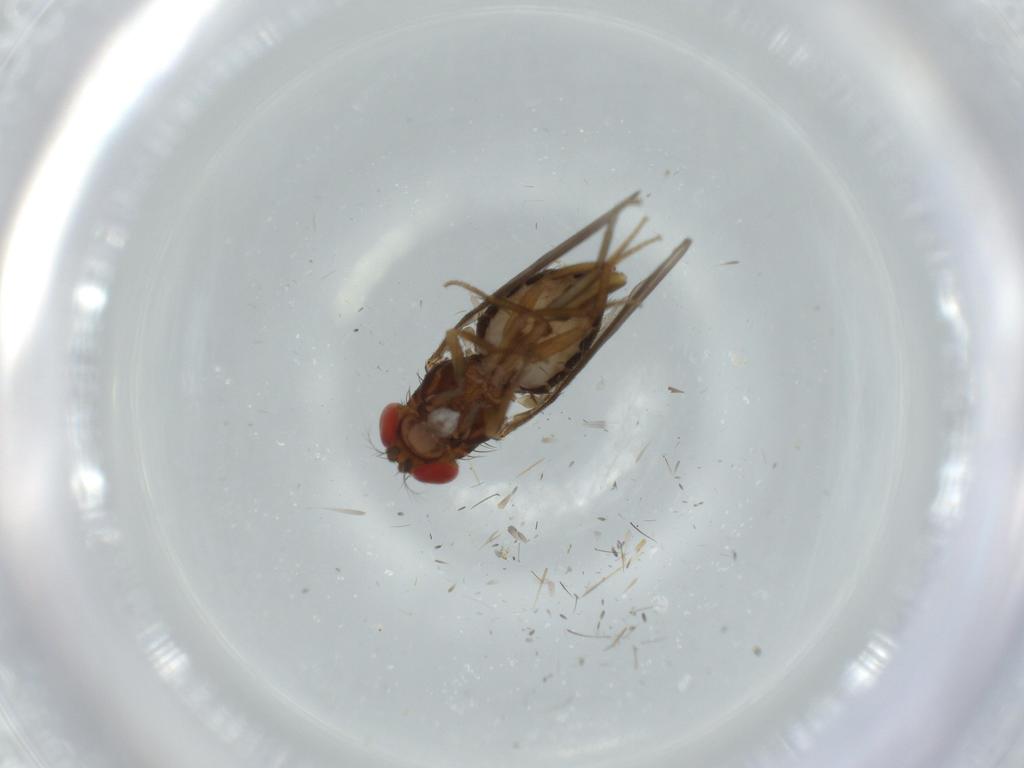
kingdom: Animalia
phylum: Arthropoda
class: Insecta
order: Diptera
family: Drosophilidae
